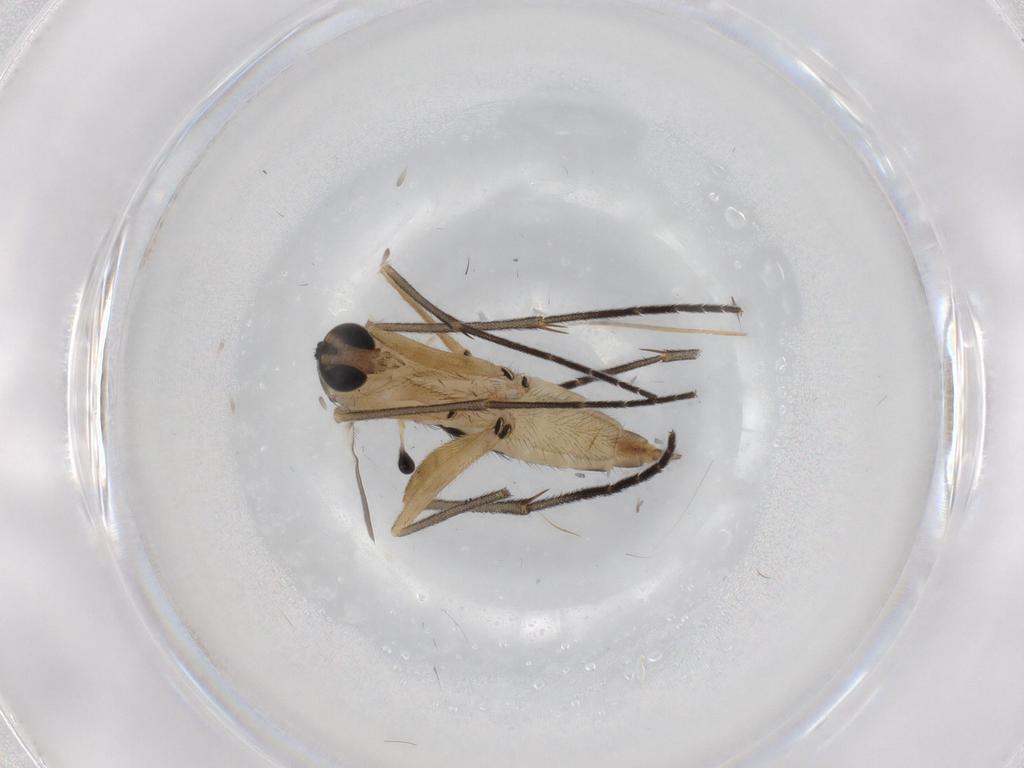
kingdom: Animalia
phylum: Arthropoda
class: Insecta
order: Diptera
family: Sciaridae
